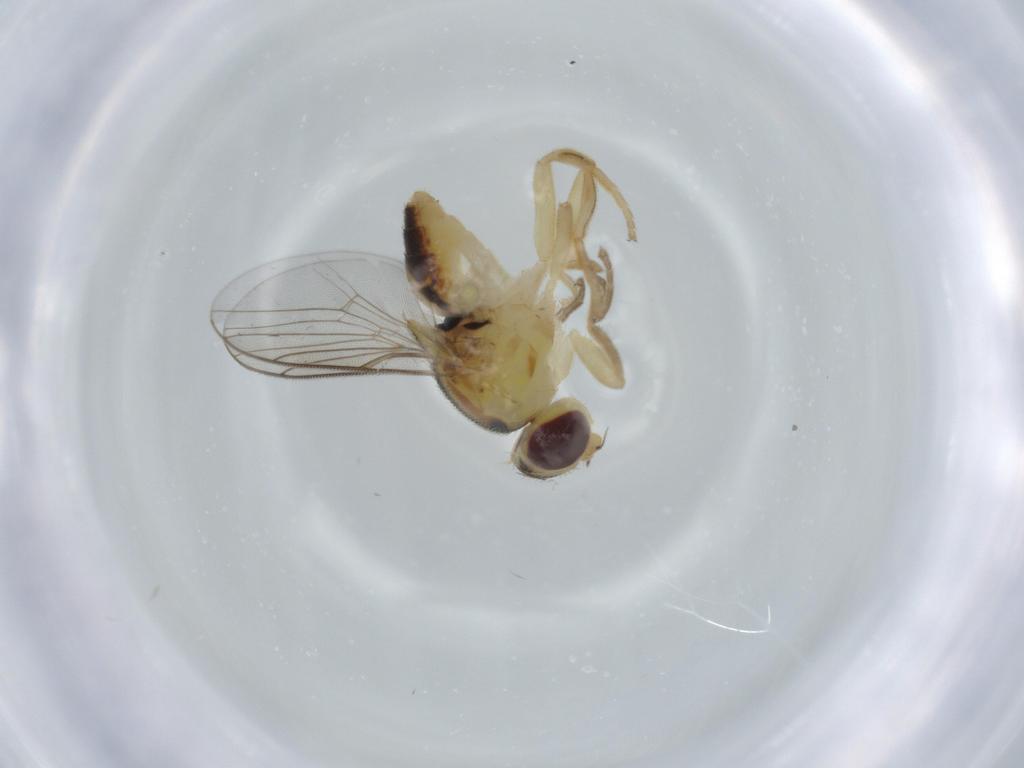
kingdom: Animalia
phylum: Arthropoda
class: Insecta
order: Diptera
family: Chloropidae
